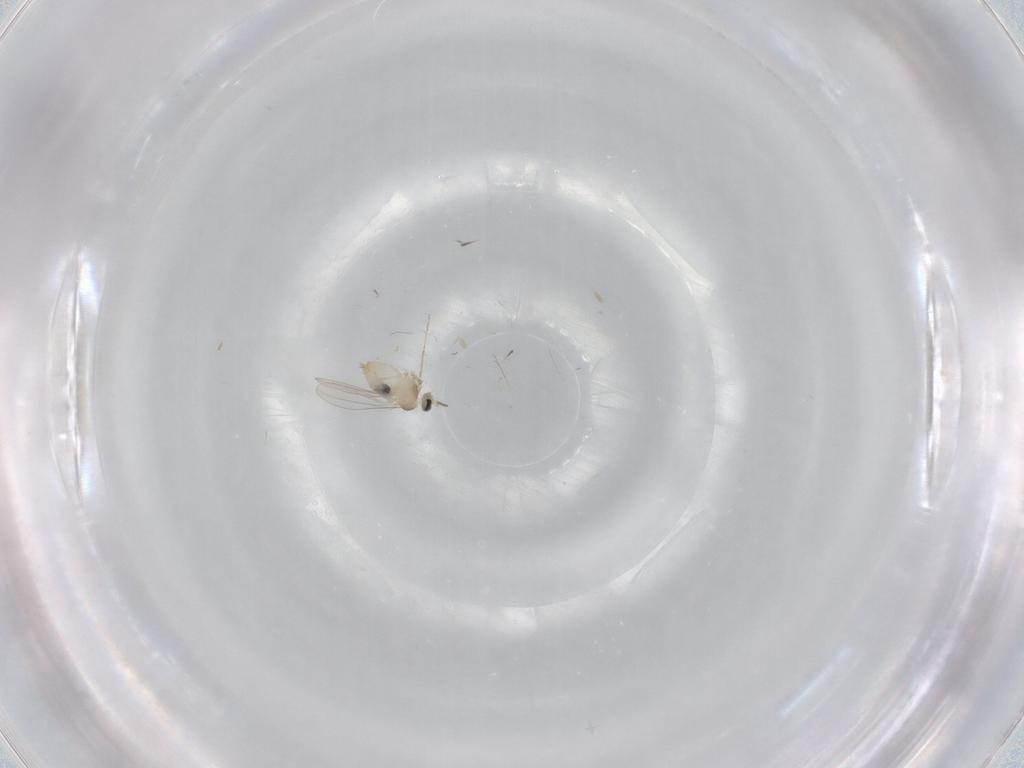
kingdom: Animalia
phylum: Arthropoda
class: Insecta
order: Diptera
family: Cecidomyiidae
